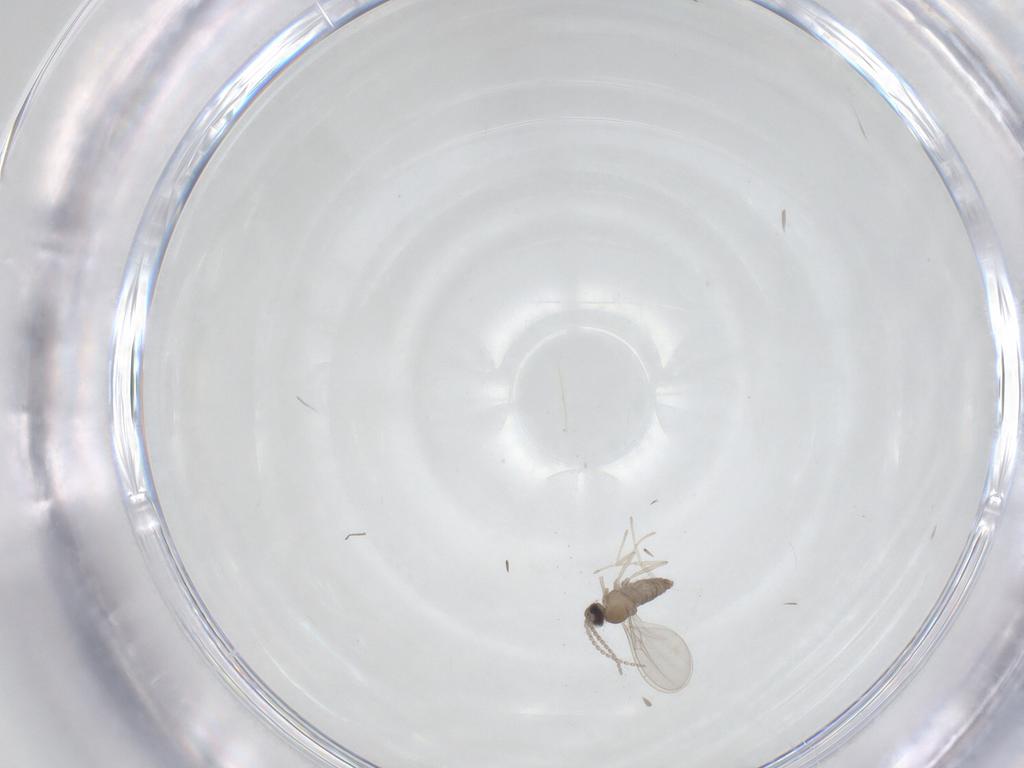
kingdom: Animalia
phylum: Arthropoda
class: Insecta
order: Diptera
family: Cecidomyiidae
